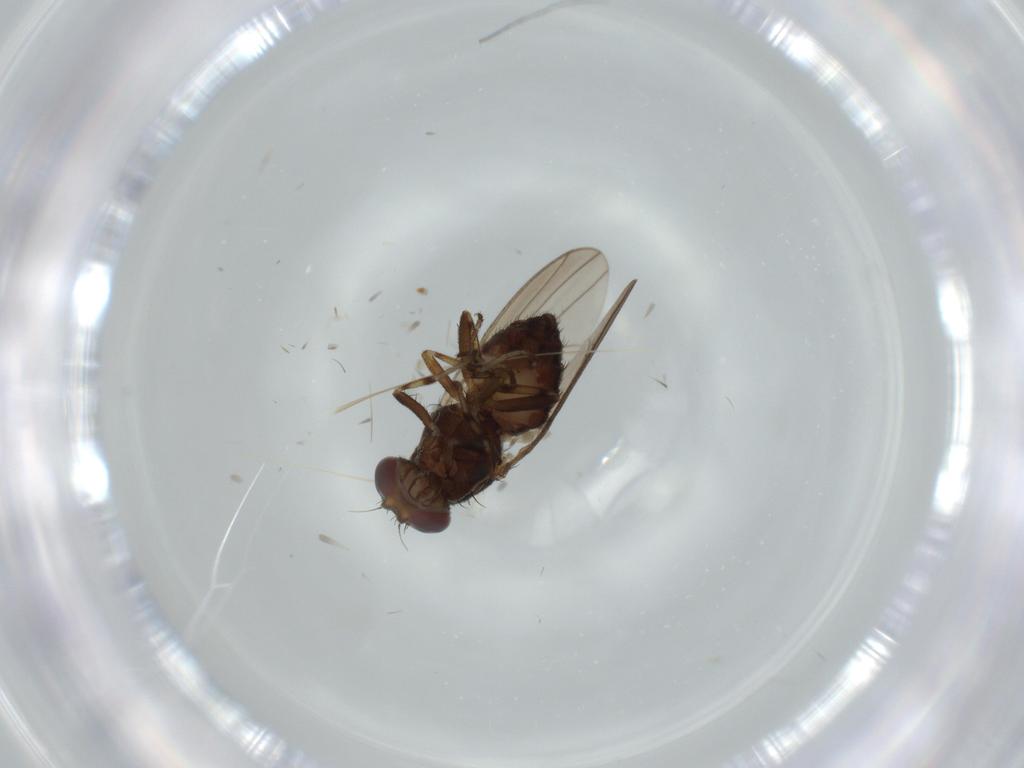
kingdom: Animalia
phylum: Arthropoda
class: Insecta
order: Diptera
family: Heleomyzidae
